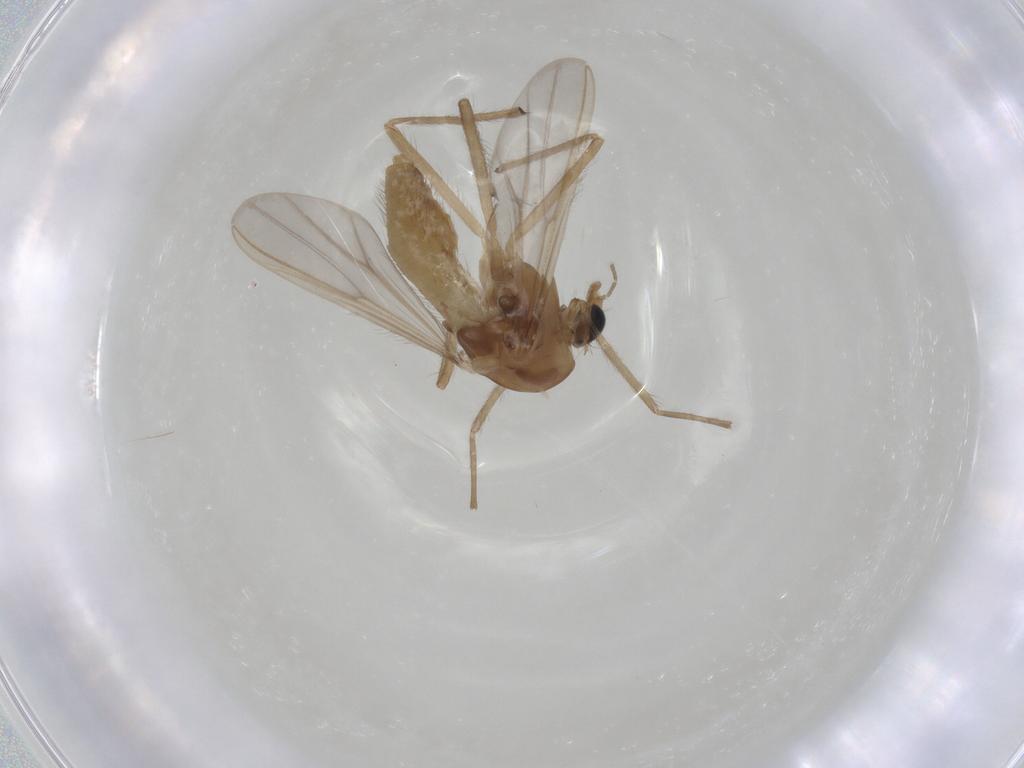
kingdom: Animalia
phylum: Arthropoda
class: Insecta
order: Diptera
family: Chironomidae
